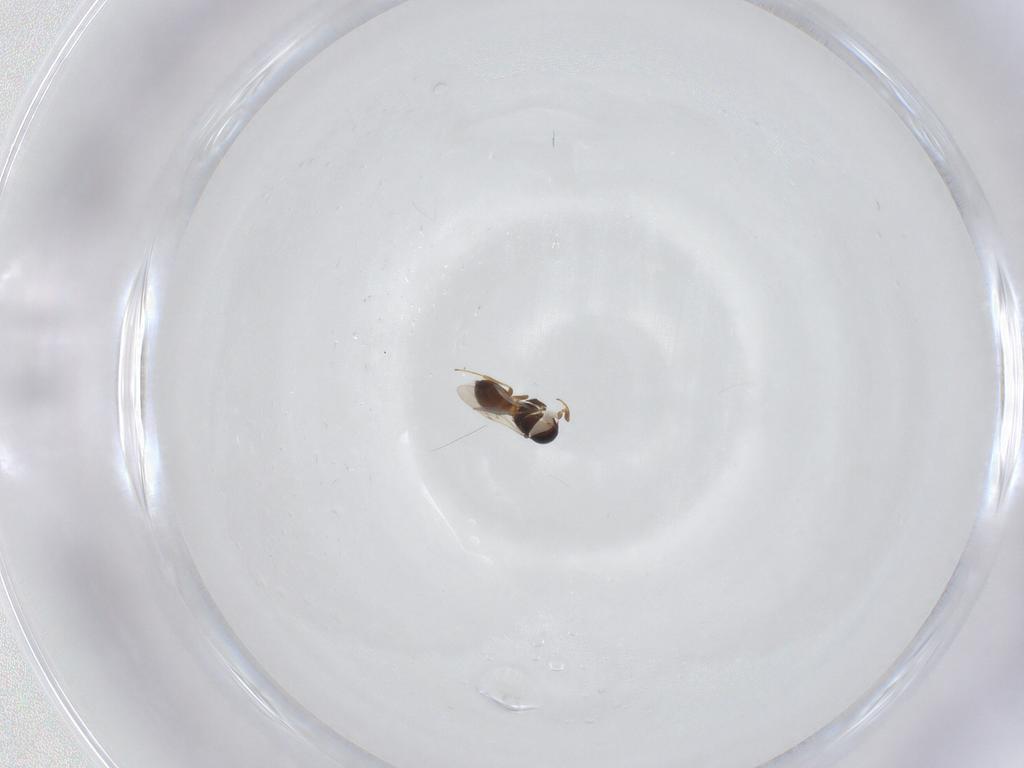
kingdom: Animalia
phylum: Arthropoda
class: Insecta
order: Hymenoptera
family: Scelionidae
